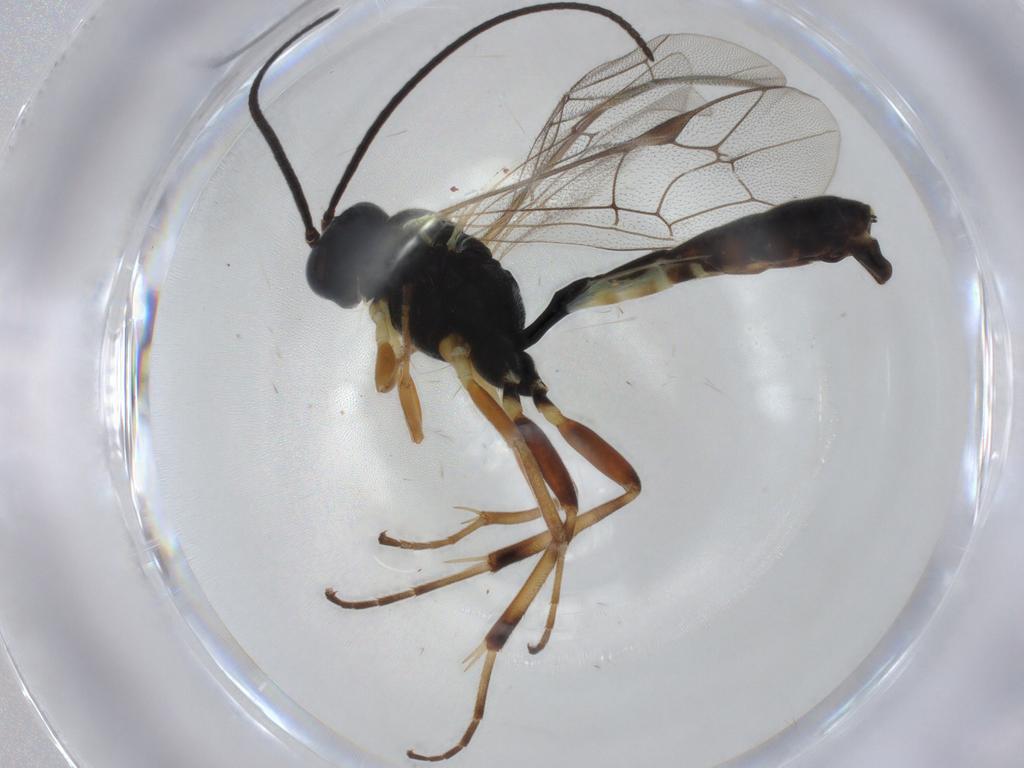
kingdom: Animalia
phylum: Arthropoda
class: Insecta
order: Hymenoptera
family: Ichneumonidae
